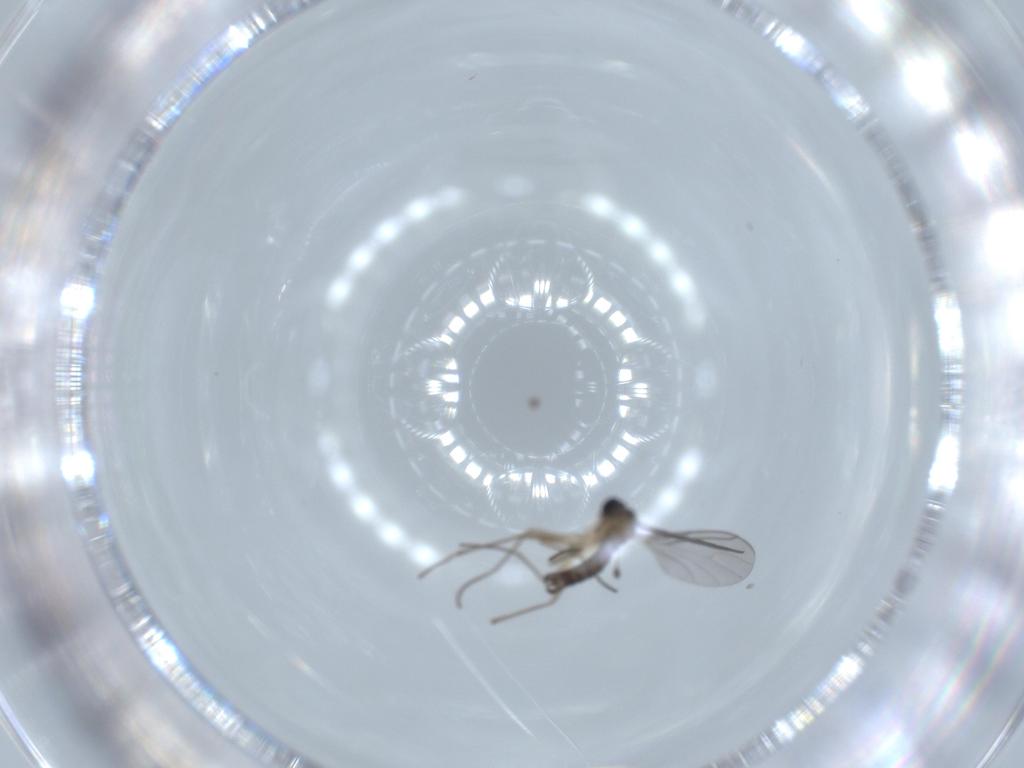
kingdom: Animalia
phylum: Arthropoda
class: Insecta
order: Diptera
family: Sciaridae
